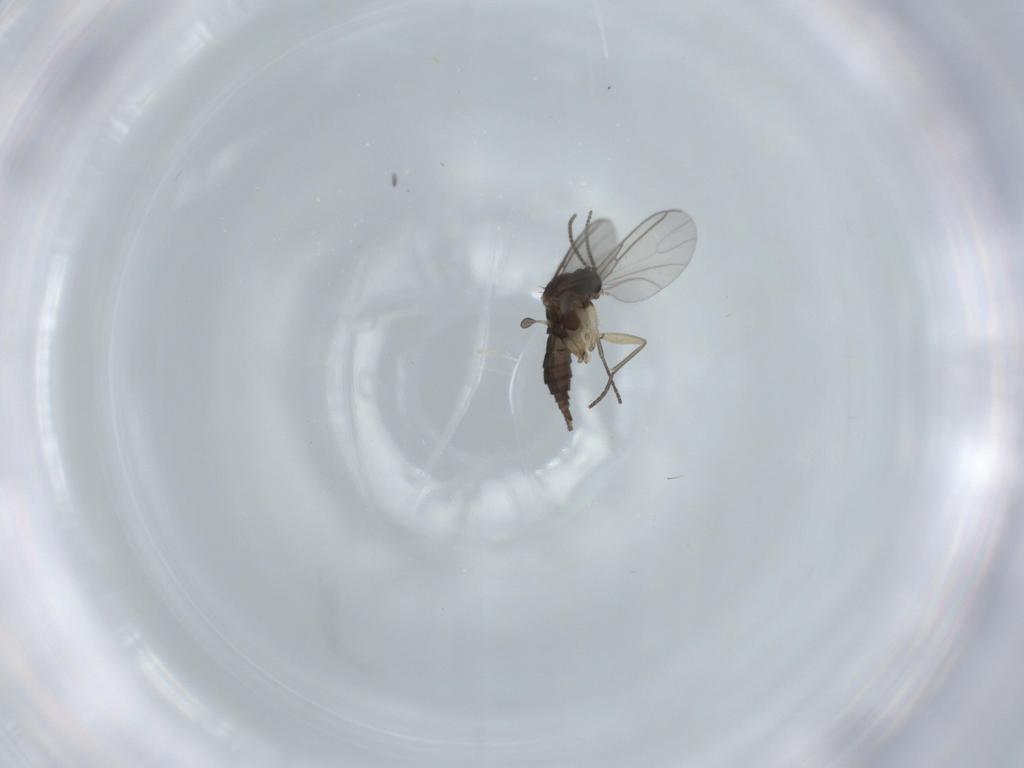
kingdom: Animalia
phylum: Arthropoda
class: Insecta
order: Diptera
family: Sciaridae
